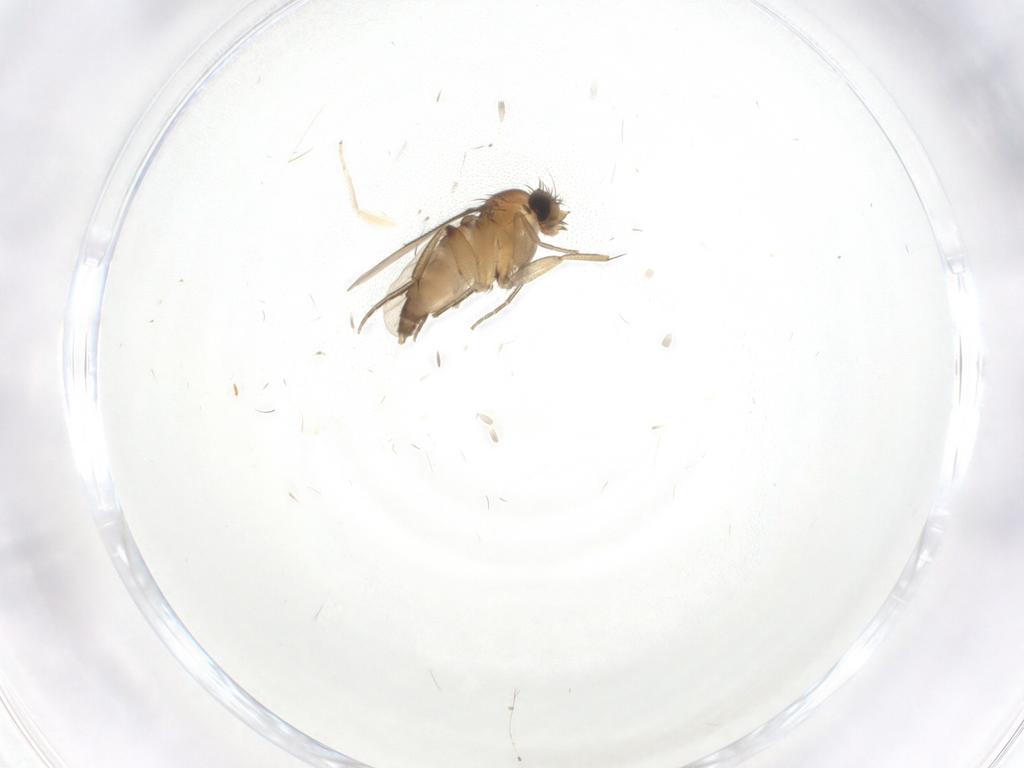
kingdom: Animalia
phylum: Arthropoda
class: Insecta
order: Diptera
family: Phoridae
